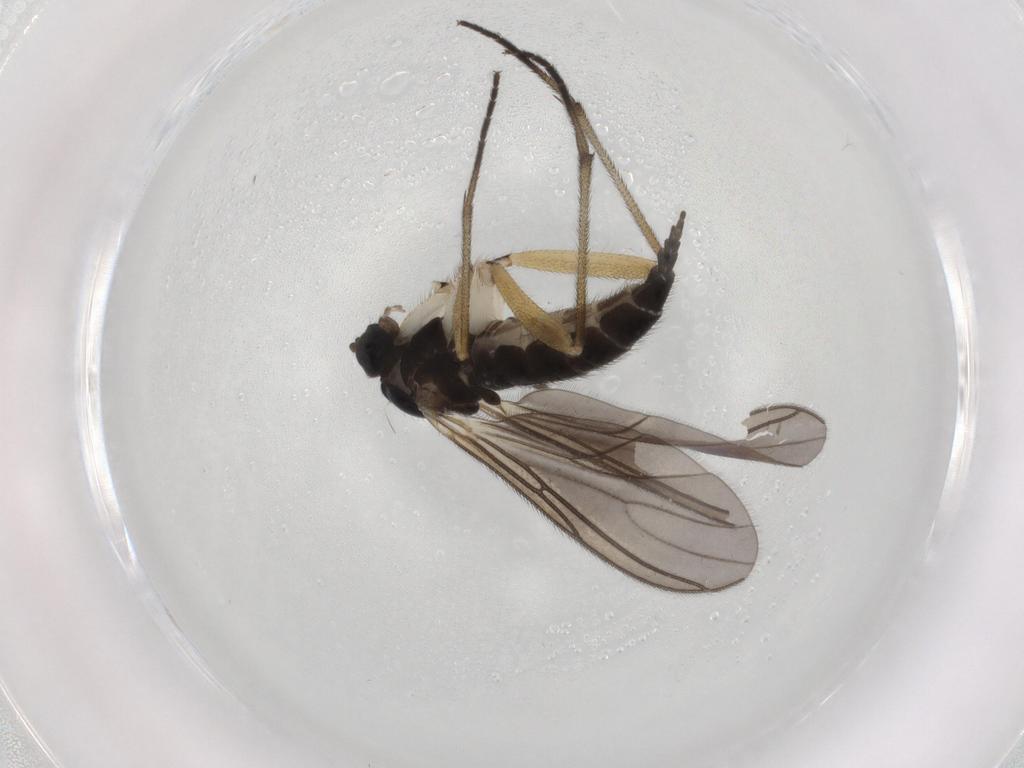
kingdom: Animalia
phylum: Arthropoda
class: Insecta
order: Diptera
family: Sciaridae
